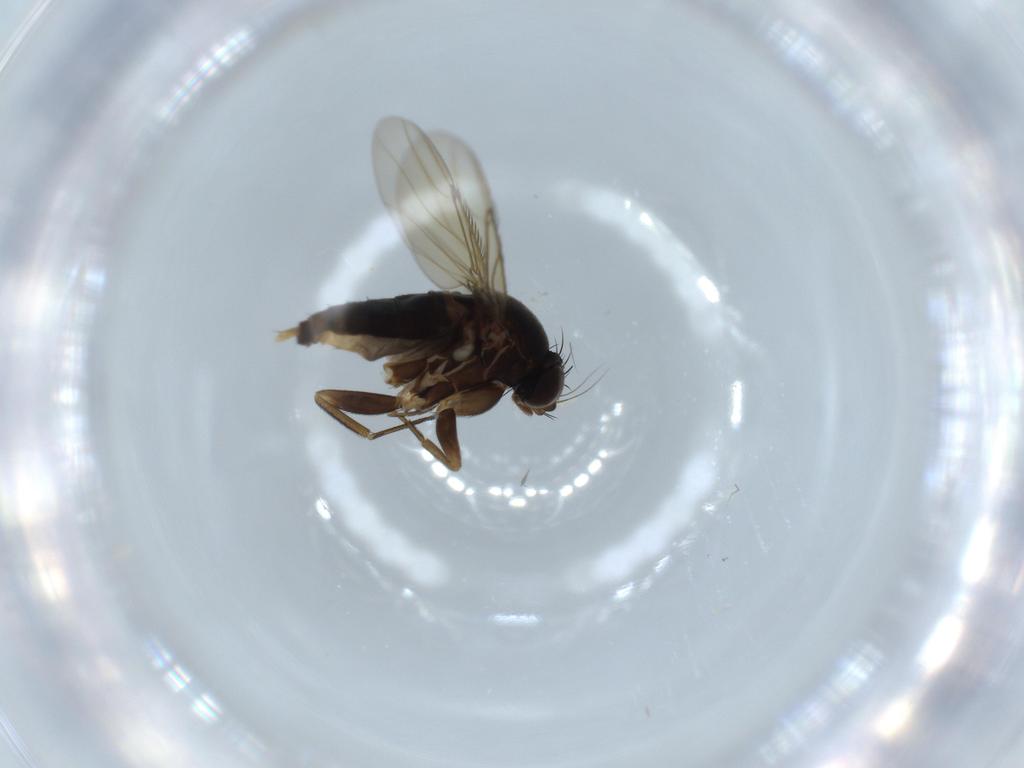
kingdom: Animalia
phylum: Arthropoda
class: Insecta
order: Diptera
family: Phoridae
